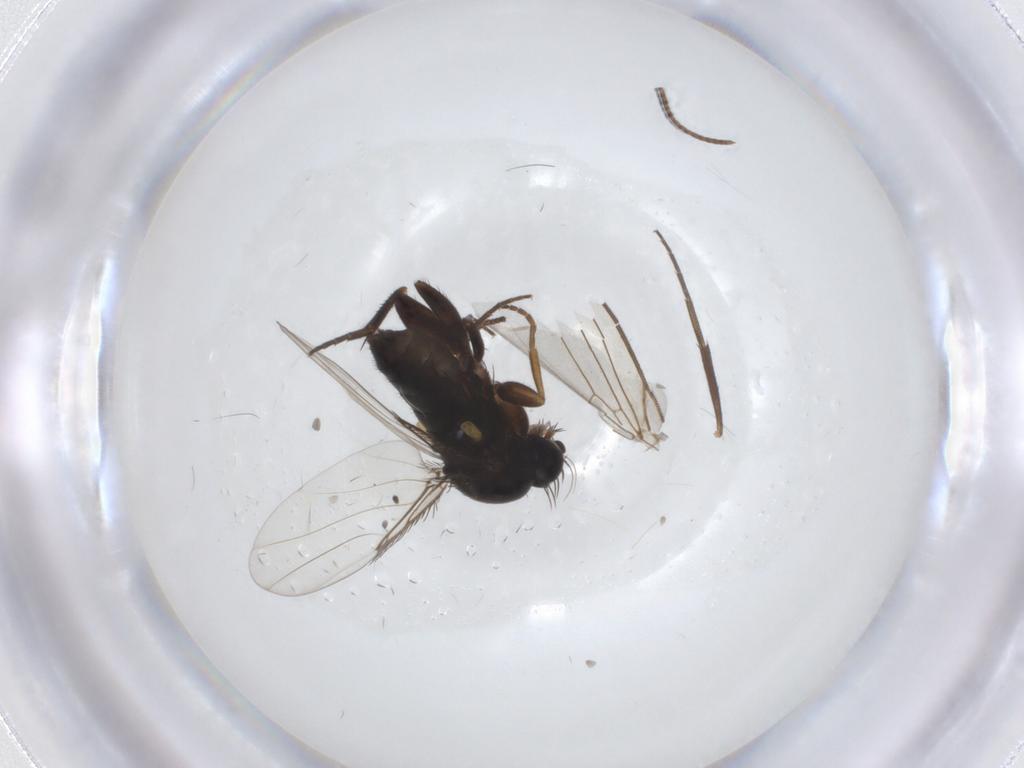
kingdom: Animalia
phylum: Arthropoda
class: Insecta
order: Diptera
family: Phoridae
